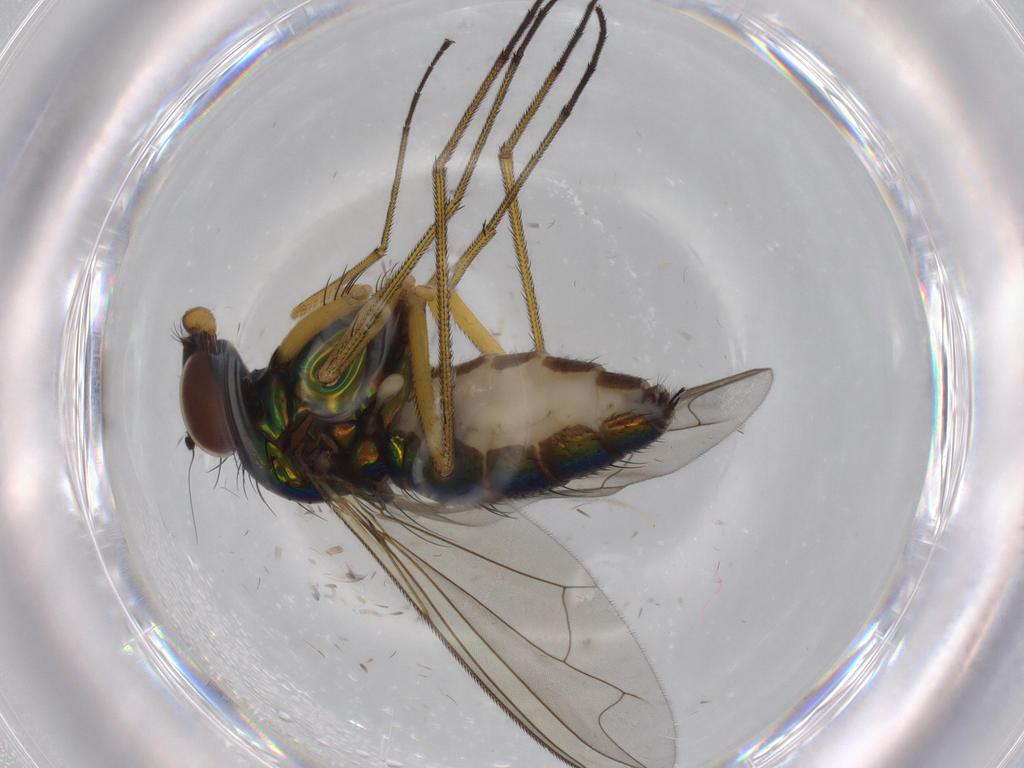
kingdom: Animalia
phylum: Arthropoda
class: Insecta
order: Diptera
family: Dolichopodidae
